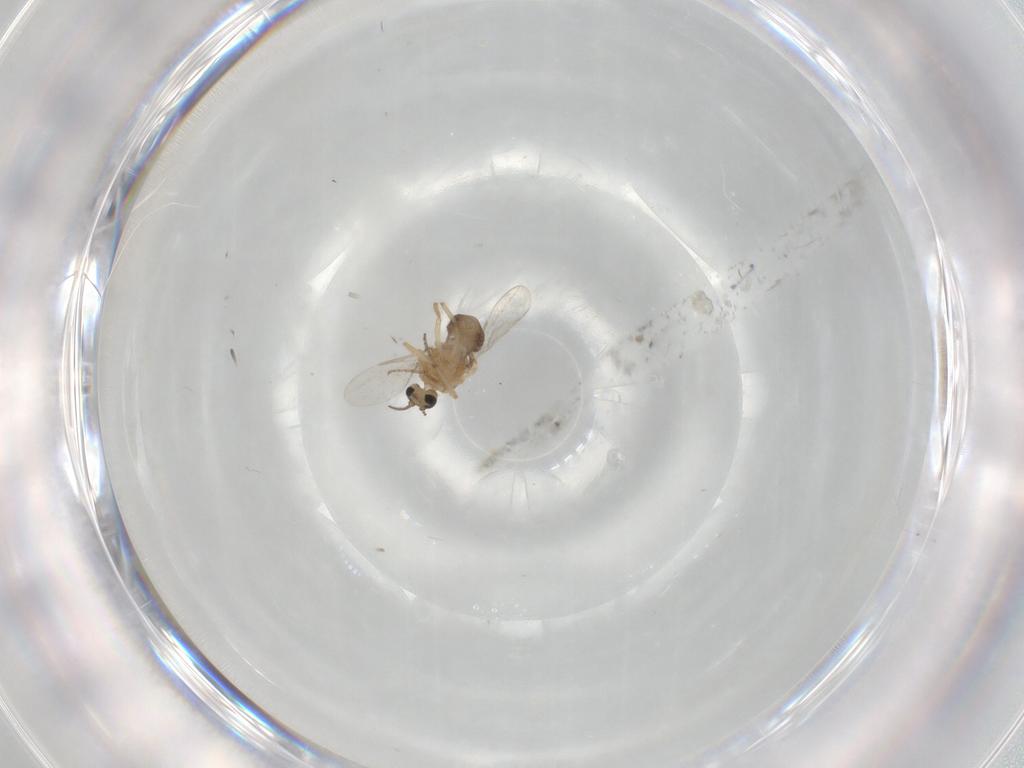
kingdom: Animalia
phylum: Arthropoda
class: Insecta
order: Diptera
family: Ceratopogonidae
